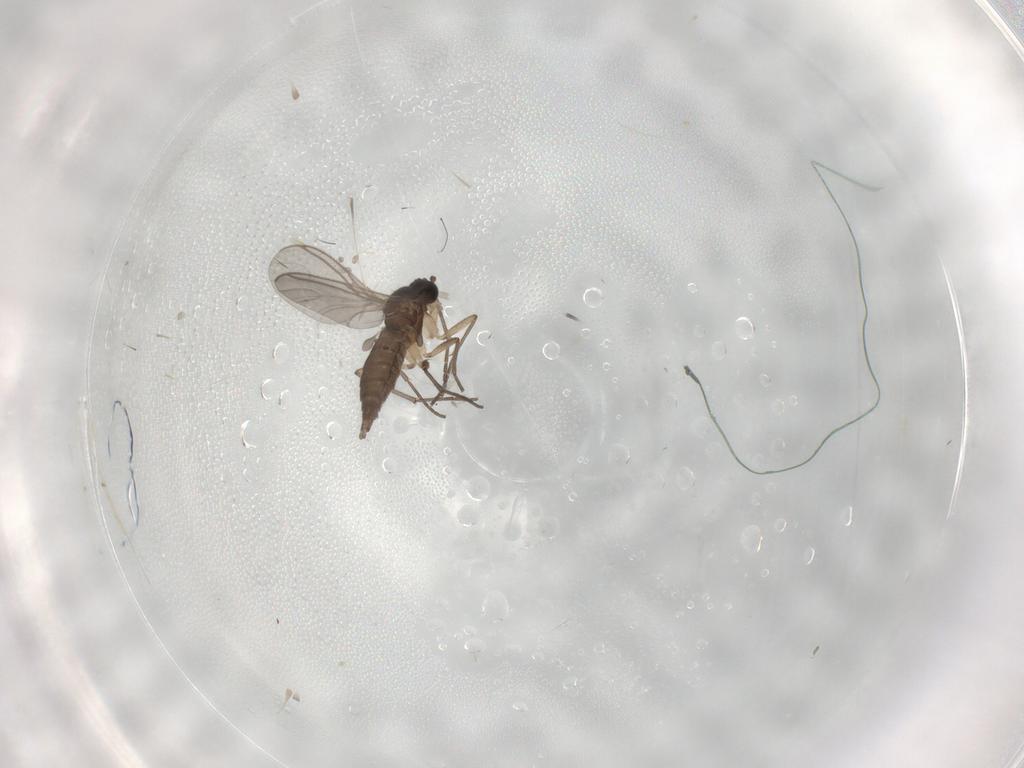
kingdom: Animalia
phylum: Arthropoda
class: Insecta
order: Diptera
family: Sciaridae
